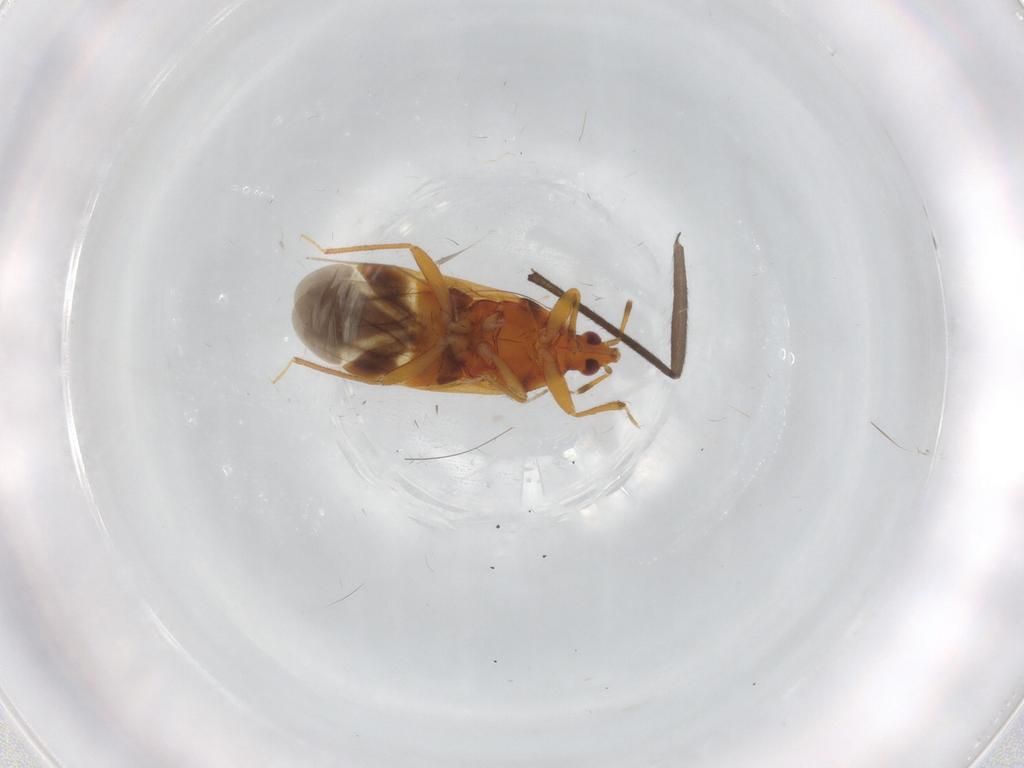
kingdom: Animalia
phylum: Arthropoda
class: Insecta
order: Hemiptera
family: Anthocoridae
